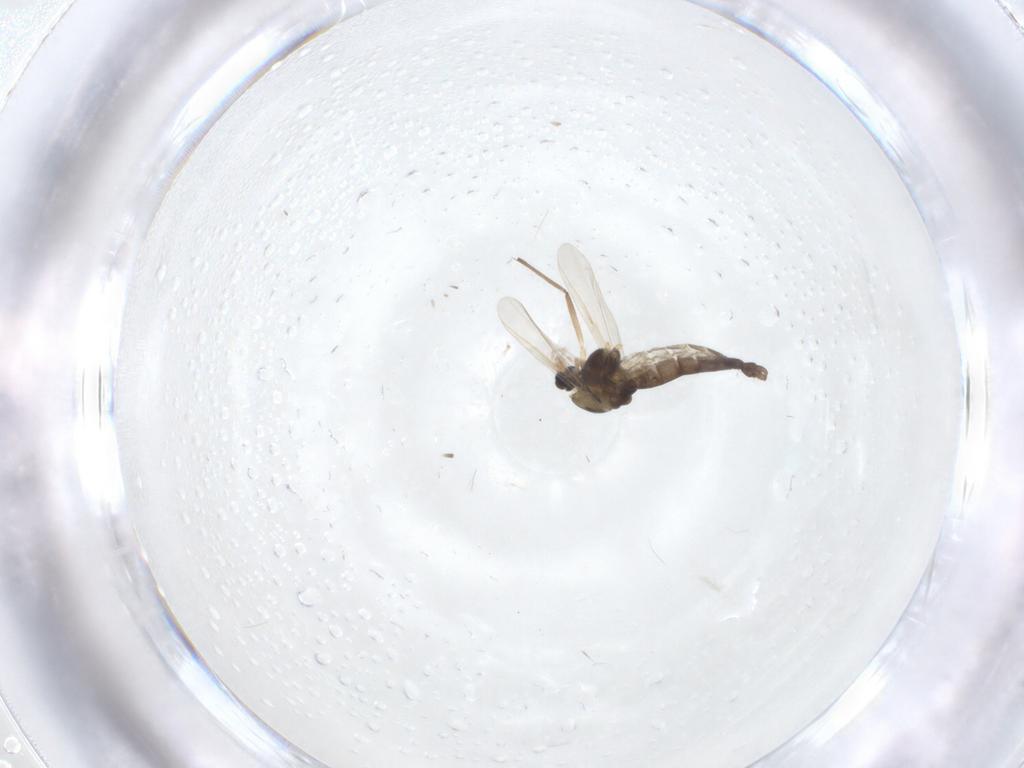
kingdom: Animalia
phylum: Arthropoda
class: Insecta
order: Diptera
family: Chironomidae
